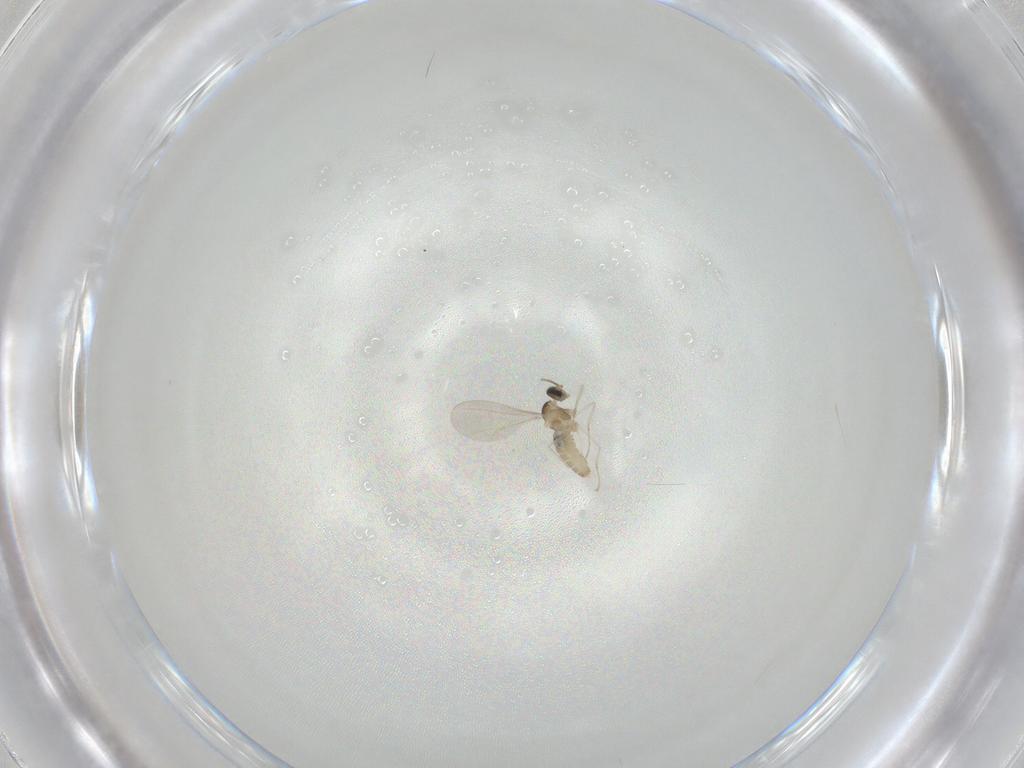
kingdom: Animalia
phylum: Arthropoda
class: Insecta
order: Diptera
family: Cecidomyiidae
